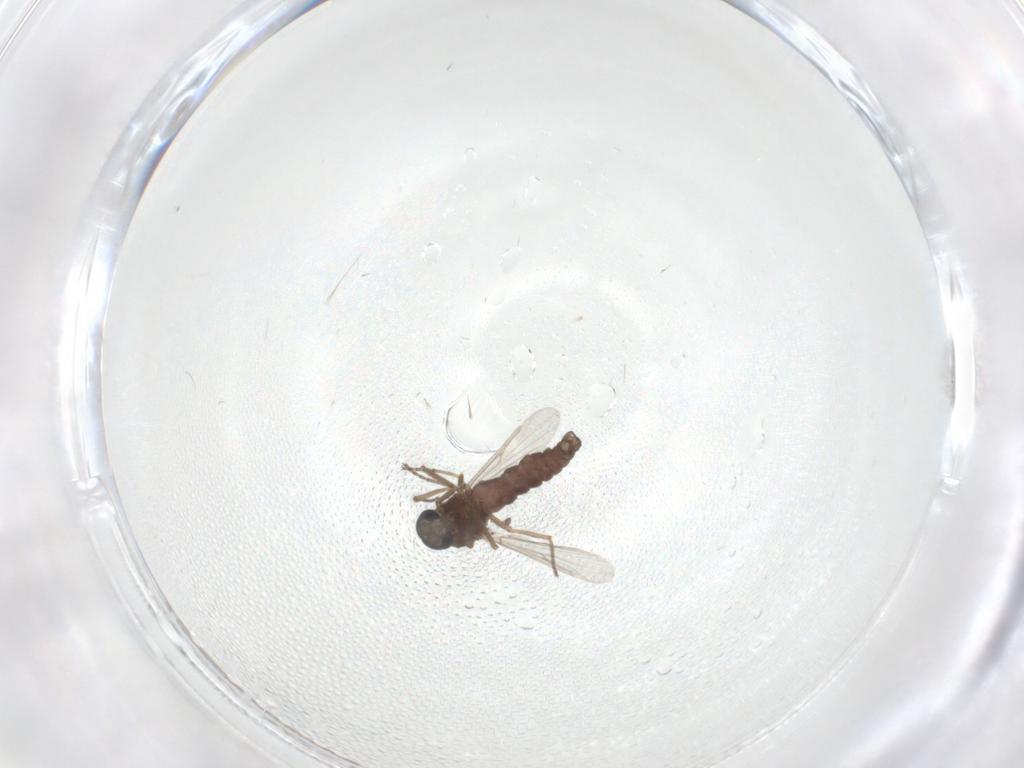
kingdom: Animalia
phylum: Arthropoda
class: Insecta
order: Diptera
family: Ceratopogonidae
